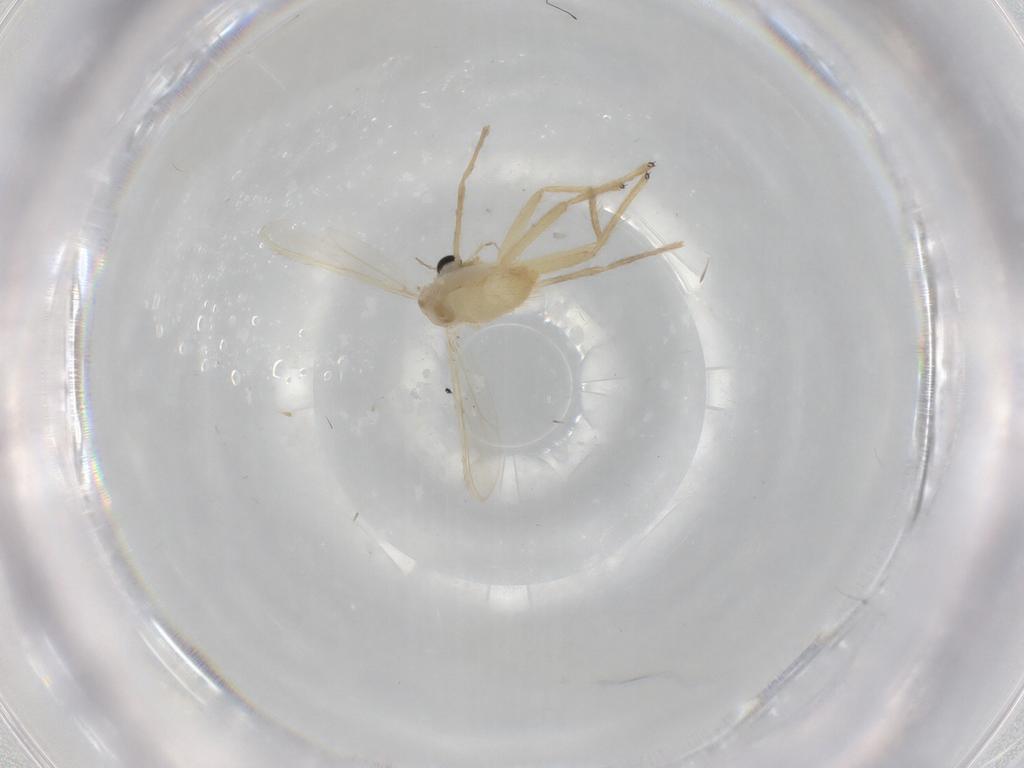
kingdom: Animalia
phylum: Arthropoda
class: Insecta
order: Diptera
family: Chironomidae
